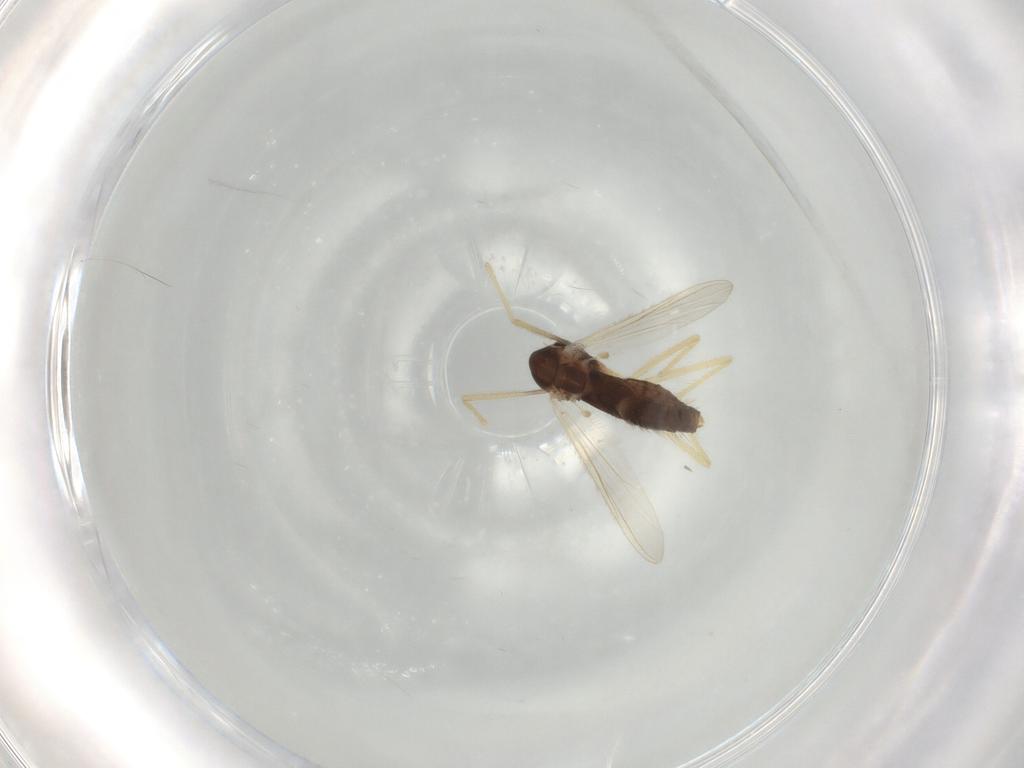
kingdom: Animalia
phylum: Arthropoda
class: Insecta
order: Diptera
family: Chironomidae
